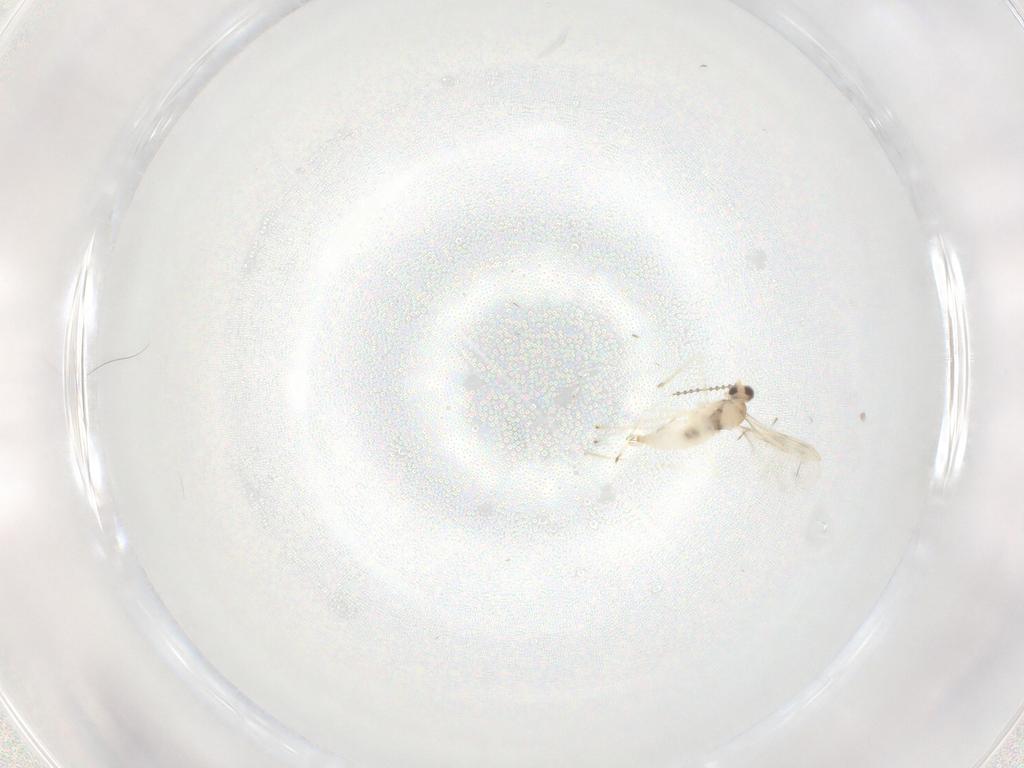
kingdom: Animalia
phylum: Arthropoda
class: Insecta
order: Diptera
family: Cecidomyiidae
